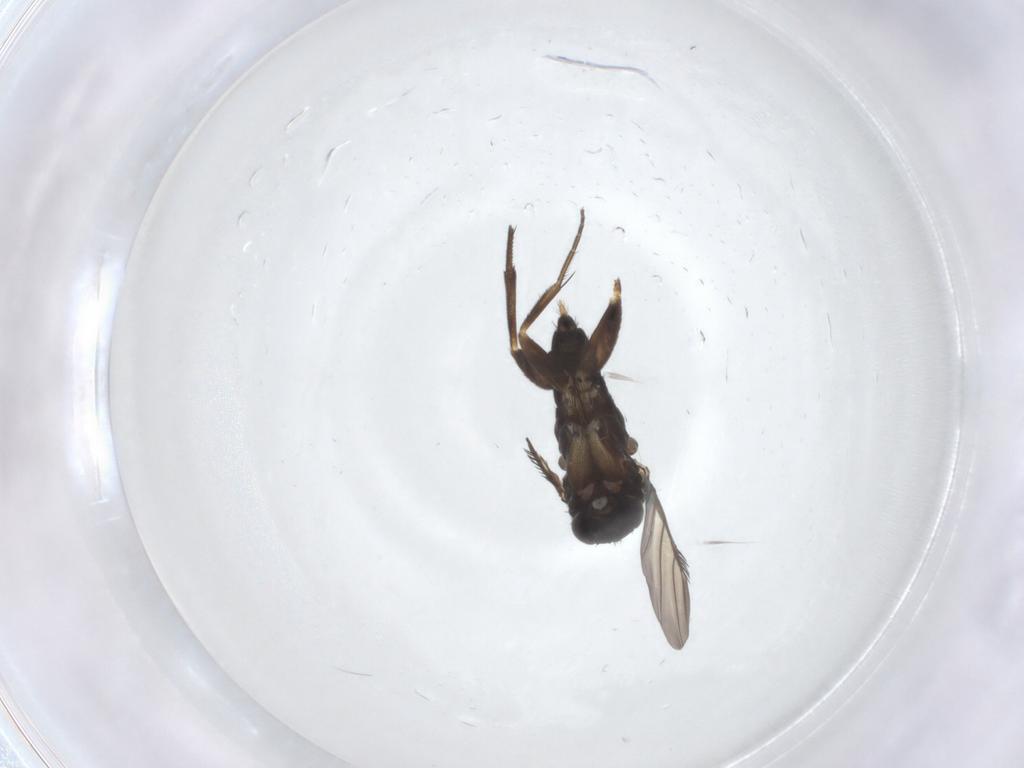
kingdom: Animalia
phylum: Arthropoda
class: Insecta
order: Diptera
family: Phoridae
